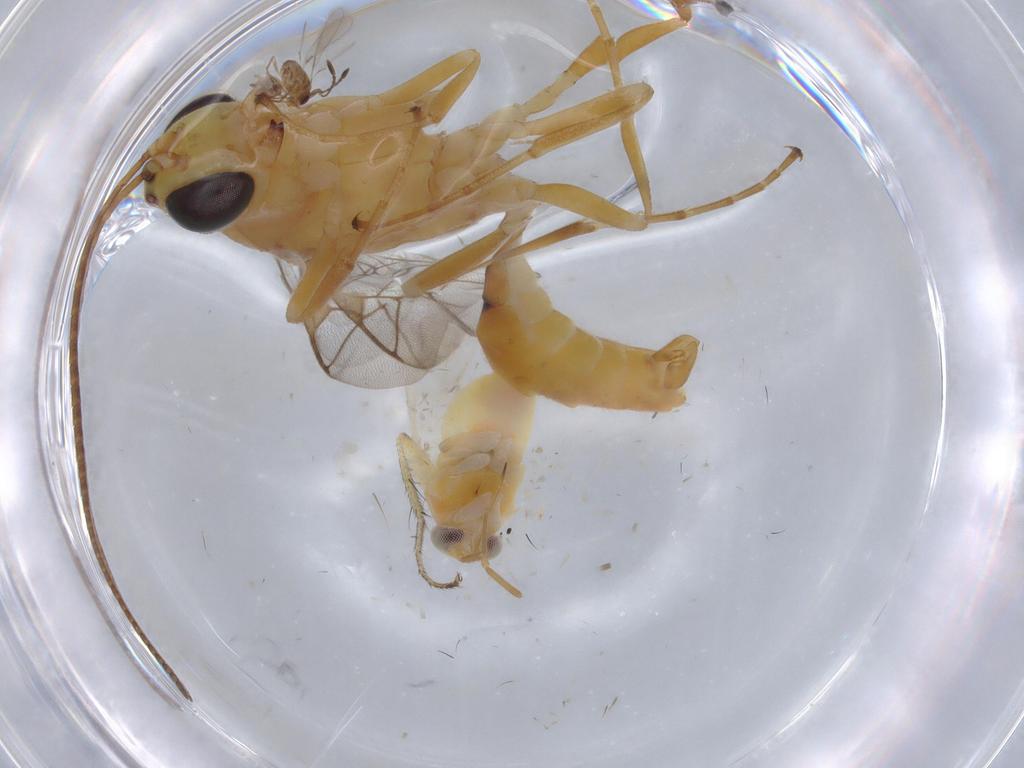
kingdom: Animalia
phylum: Arthropoda
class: Insecta
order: Hymenoptera
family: Ichneumonidae
